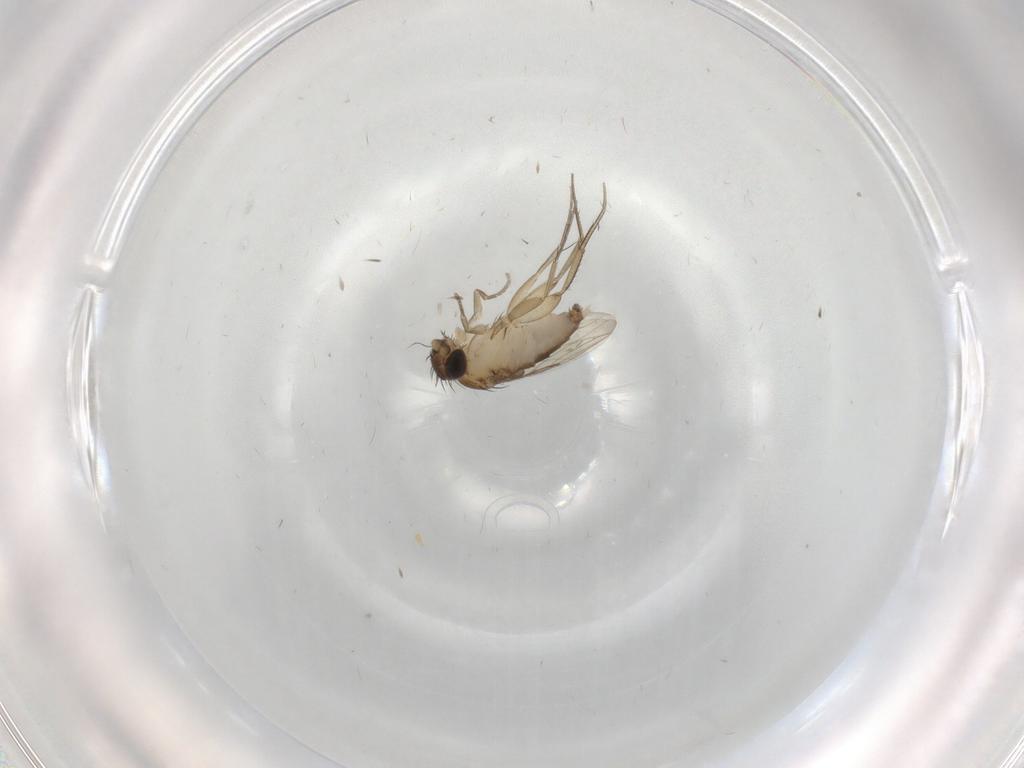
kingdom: Animalia
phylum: Arthropoda
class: Insecta
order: Diptera
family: Phoridae
